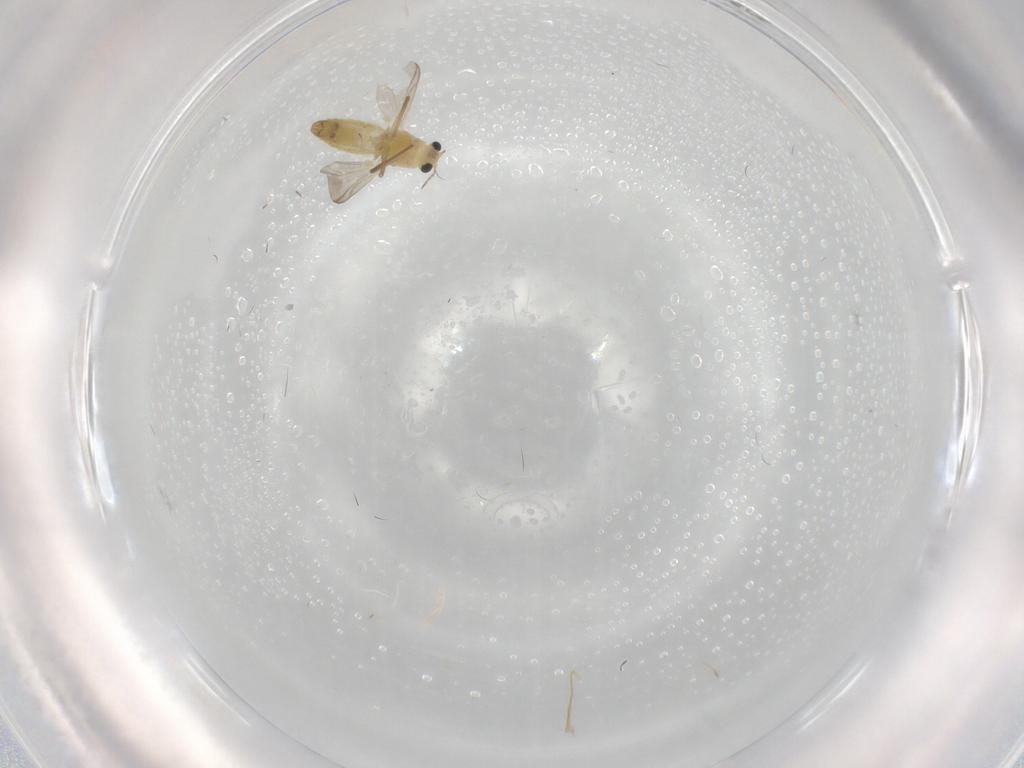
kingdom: Animalia
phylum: Arthropoda
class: Insecta
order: Diptera
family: Chironomidae
